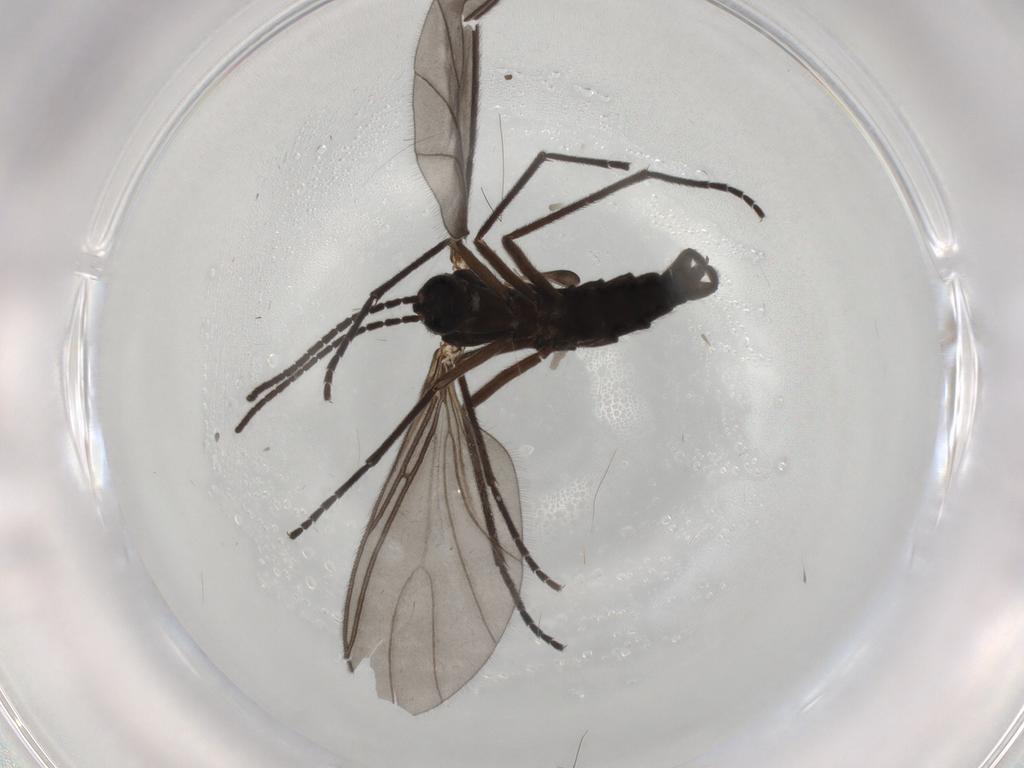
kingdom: Animalia
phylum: Arthropoda
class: Insecta
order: Diptera
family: Sciaridae
